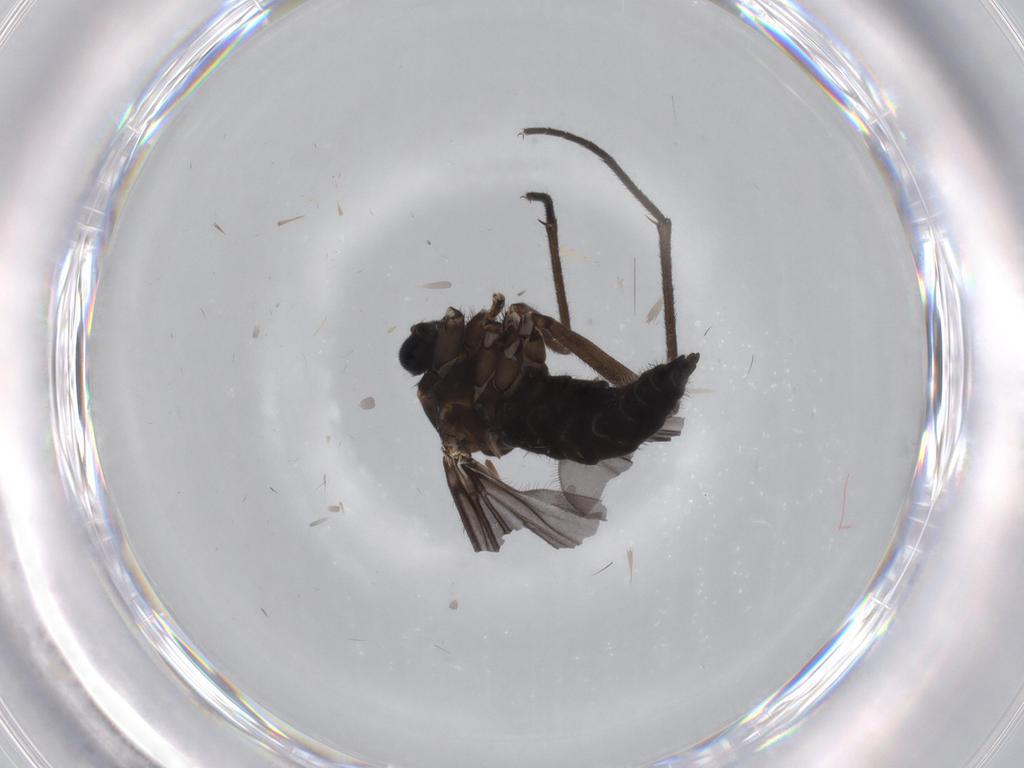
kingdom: Animalia
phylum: Arthropoda
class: Insecta
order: Diptera
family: Sciaridae
